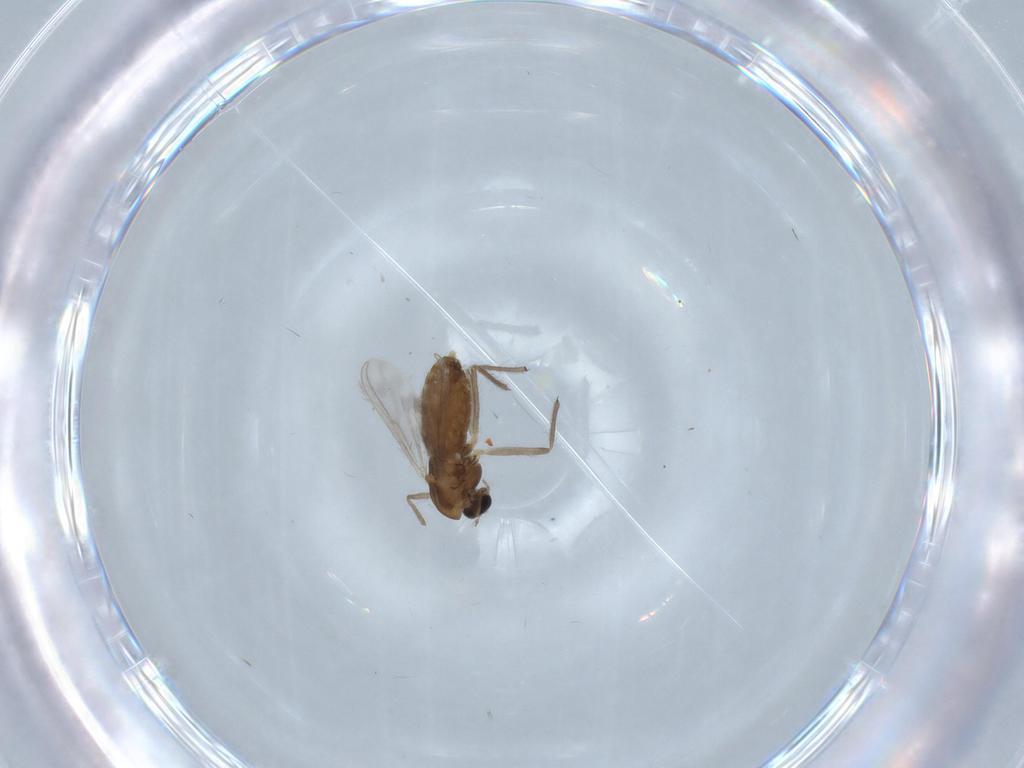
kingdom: Animalia
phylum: Arthropoda
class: Insecta
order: Diptera
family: Chironomidae
